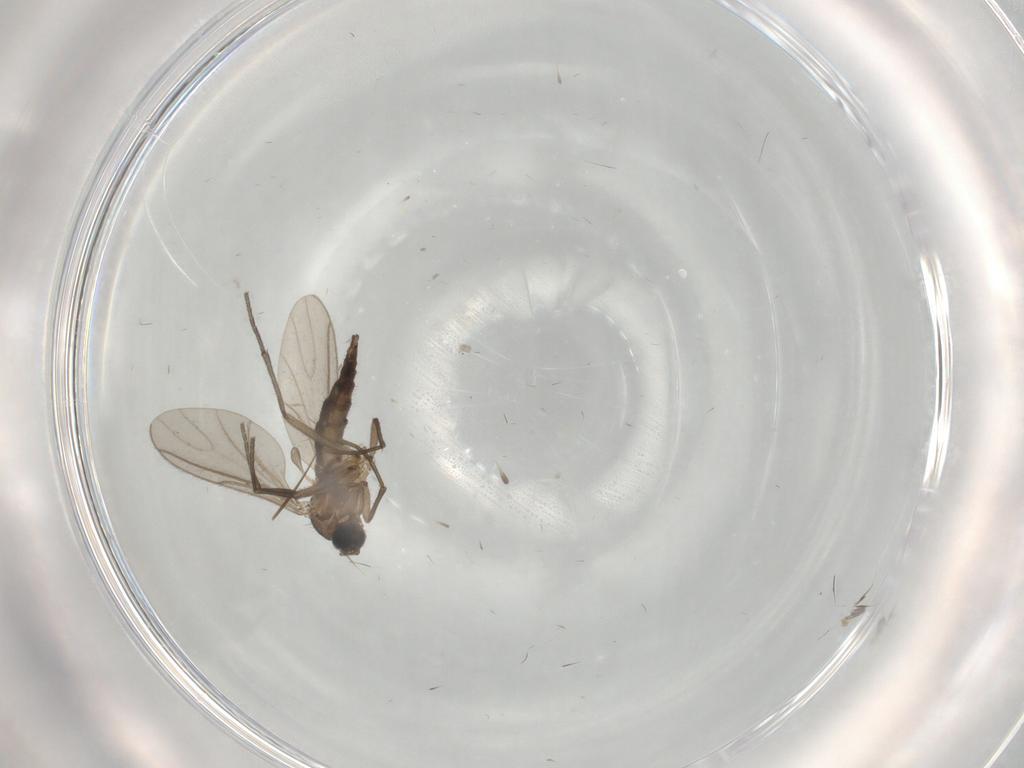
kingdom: Animalia
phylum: Arthropoda
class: Insecta
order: Diptera
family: Sciaridae
